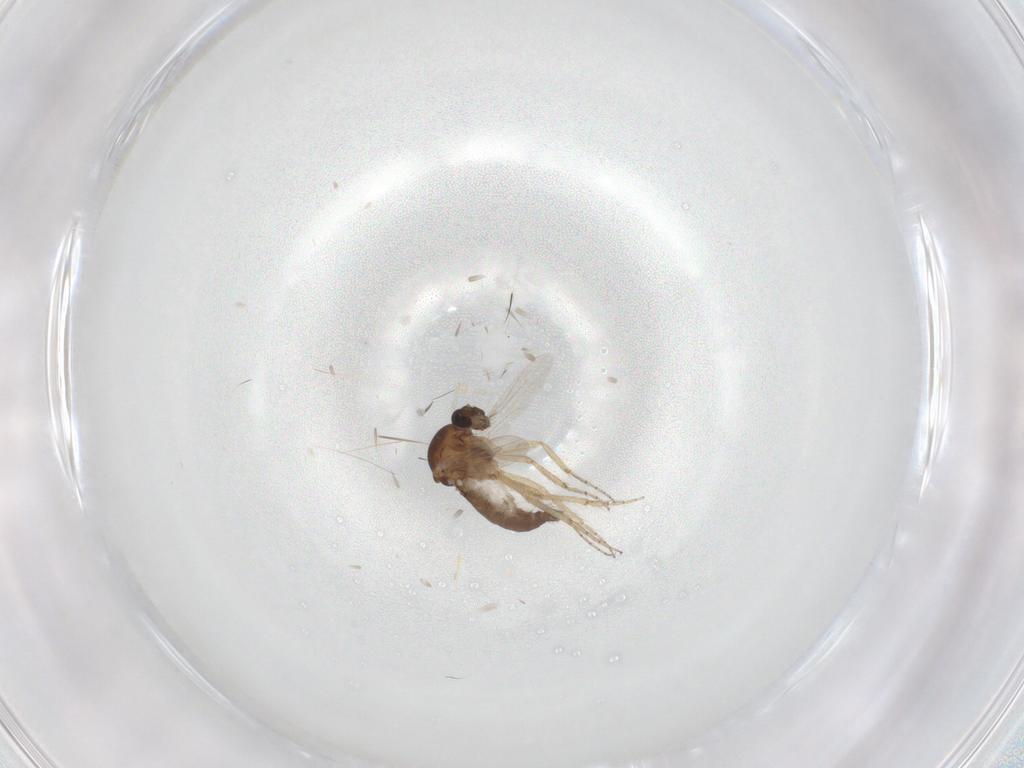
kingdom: Animalia
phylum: Arthropoda
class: Insecta
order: Diptera
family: Ceratopogonidae
